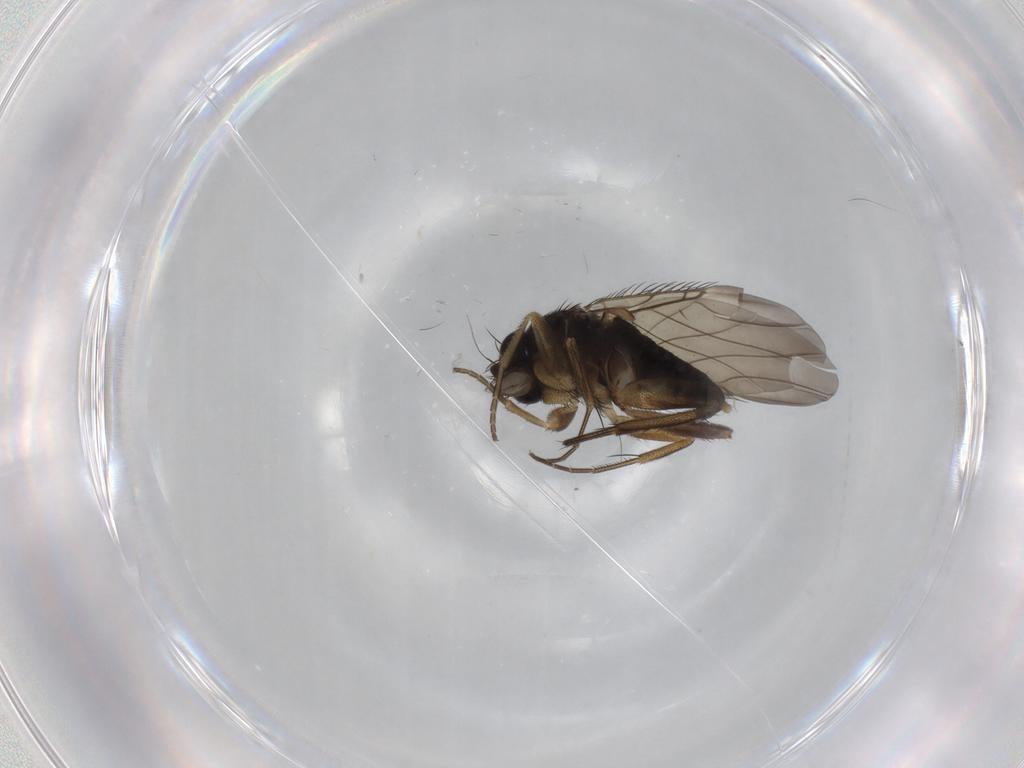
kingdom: Animalia
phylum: Arthropoda
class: Insecta
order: Diptera
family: Phoridae
